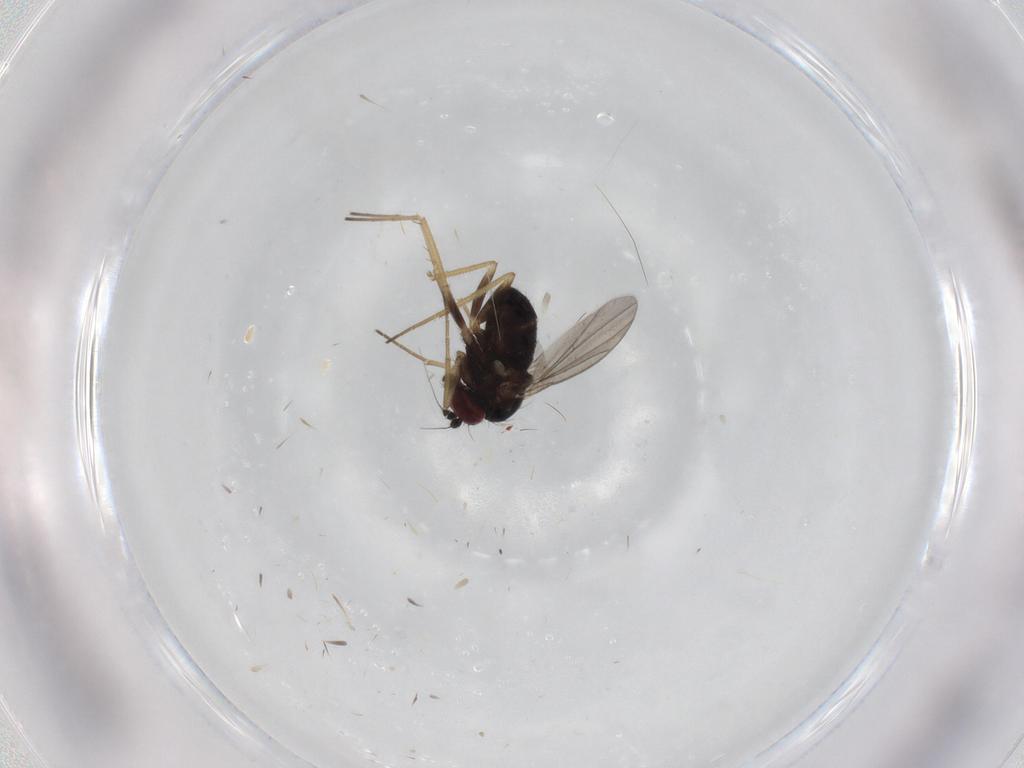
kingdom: Animalia
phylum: Arthropoda
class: Insecta
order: Diptera
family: Cecidomyiidae
